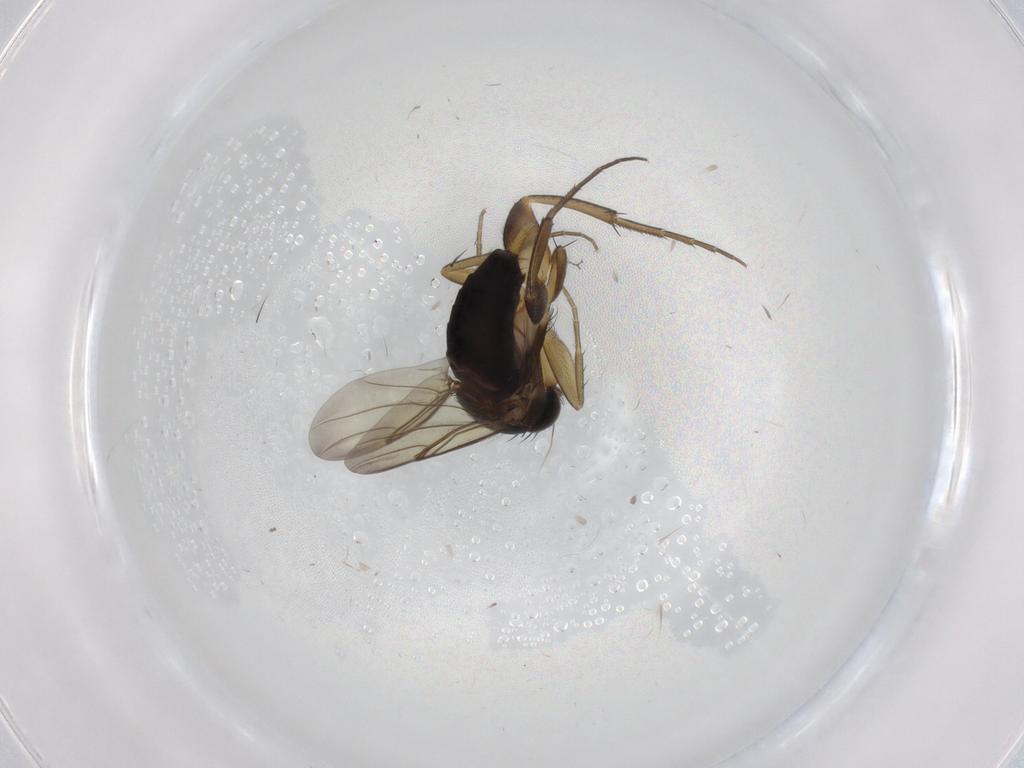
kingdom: Animalia
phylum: Arthropoda
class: Insecta
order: Diptera
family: Phoridae
